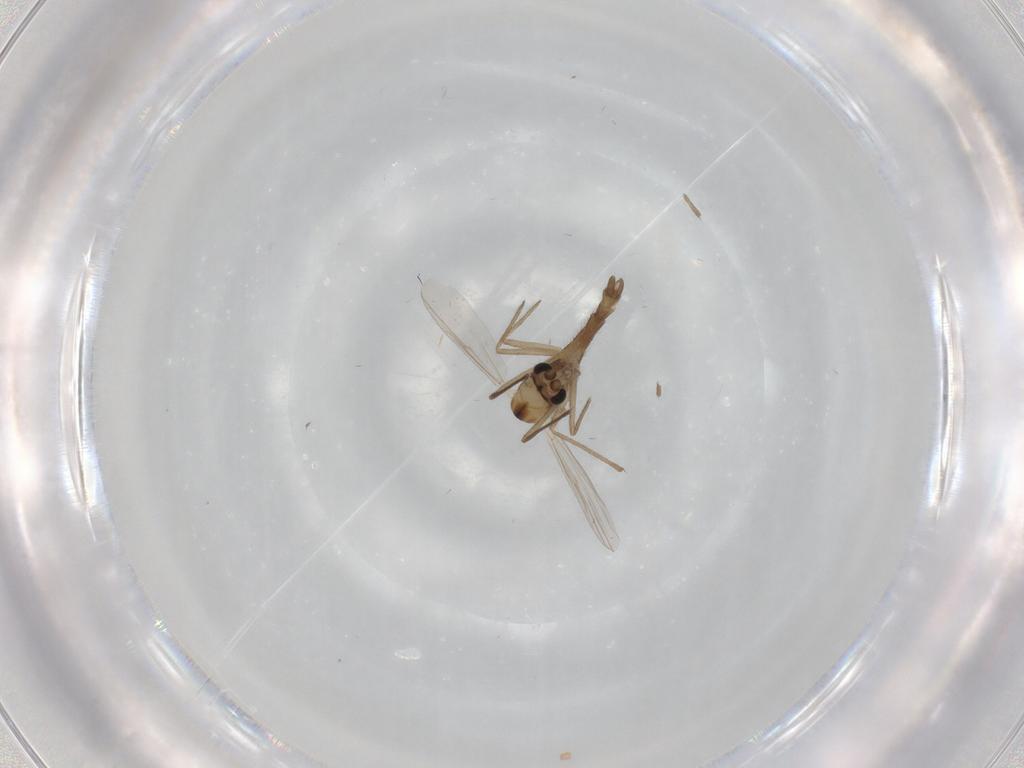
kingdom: Animalia
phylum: Arthropoda
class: Insecta
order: Diptera
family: Chironomidae
